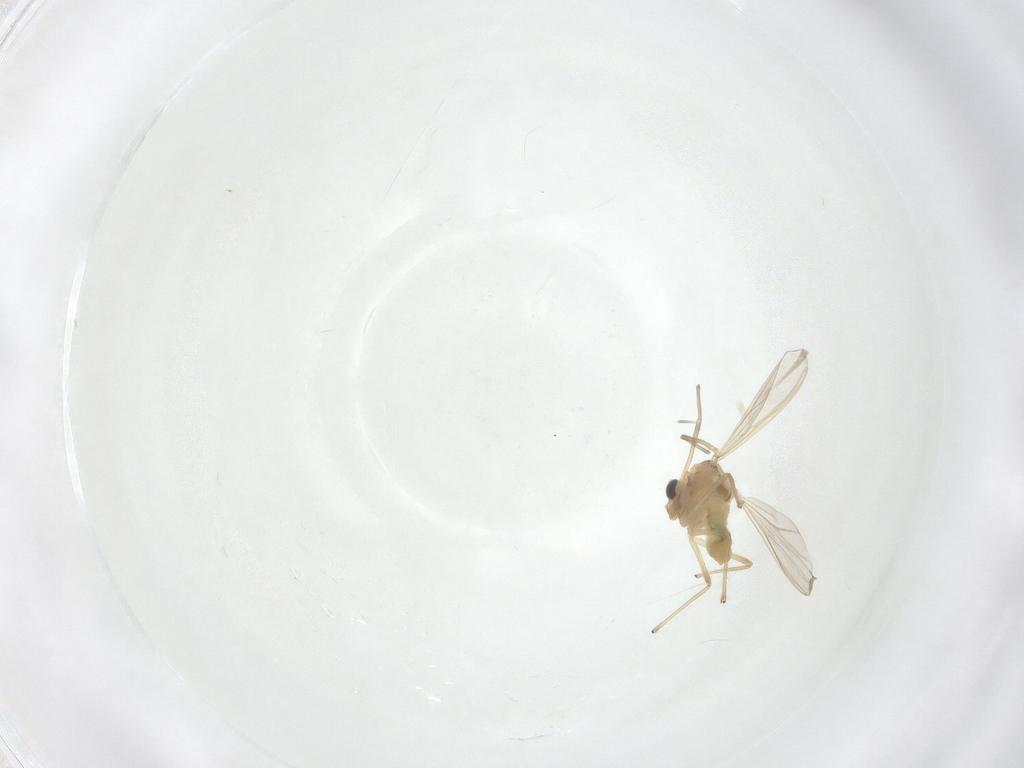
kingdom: Animalia
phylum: Arthropoda
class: Insecta
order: Diptera
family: Chironomidae
